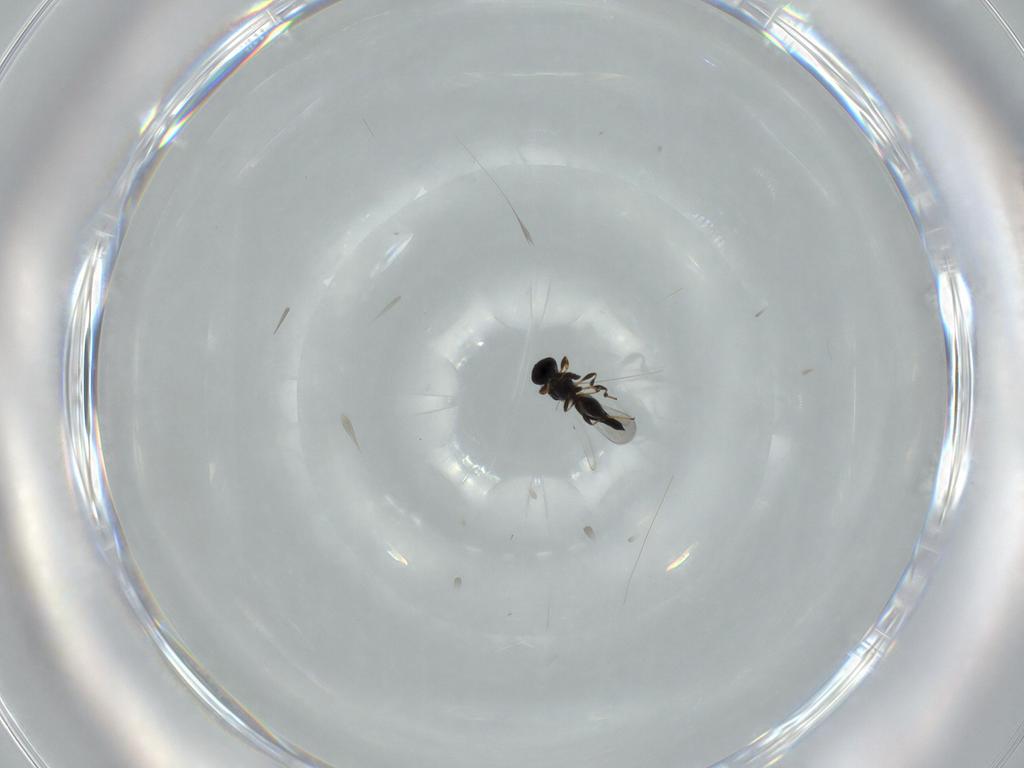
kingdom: Animalia
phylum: Arthropoda
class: Insecta
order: Hymenoptera
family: Platygastridae
